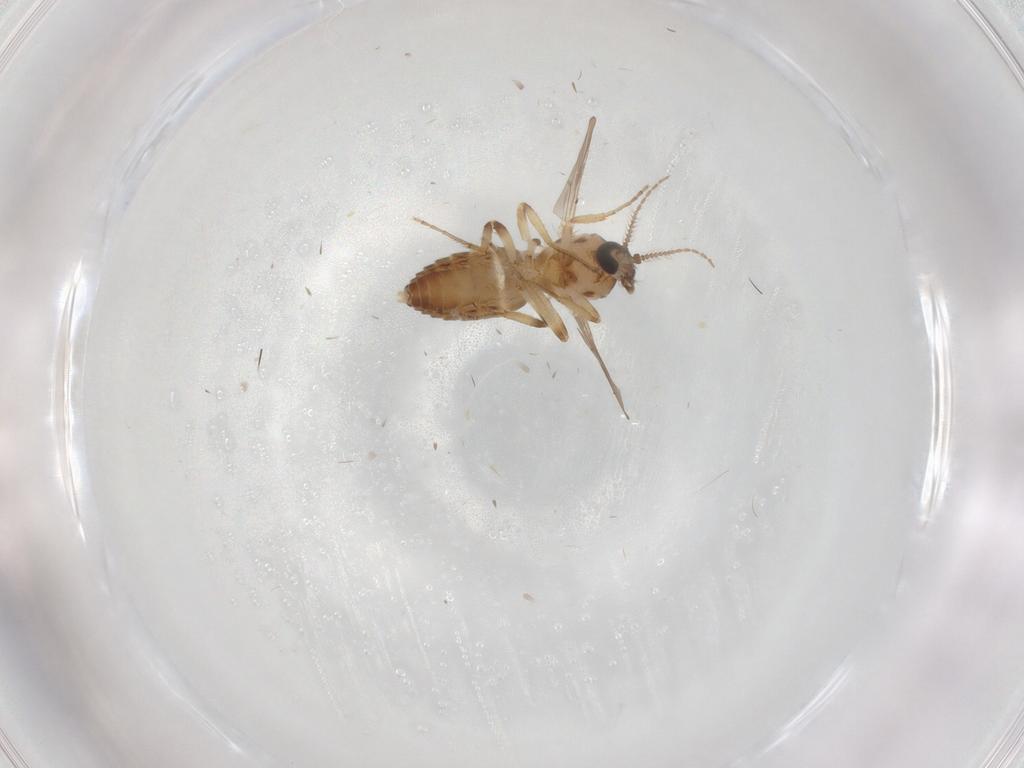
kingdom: Animalia
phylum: Arthropoda
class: Insecta
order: Diptera
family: Ceratopogonidae
